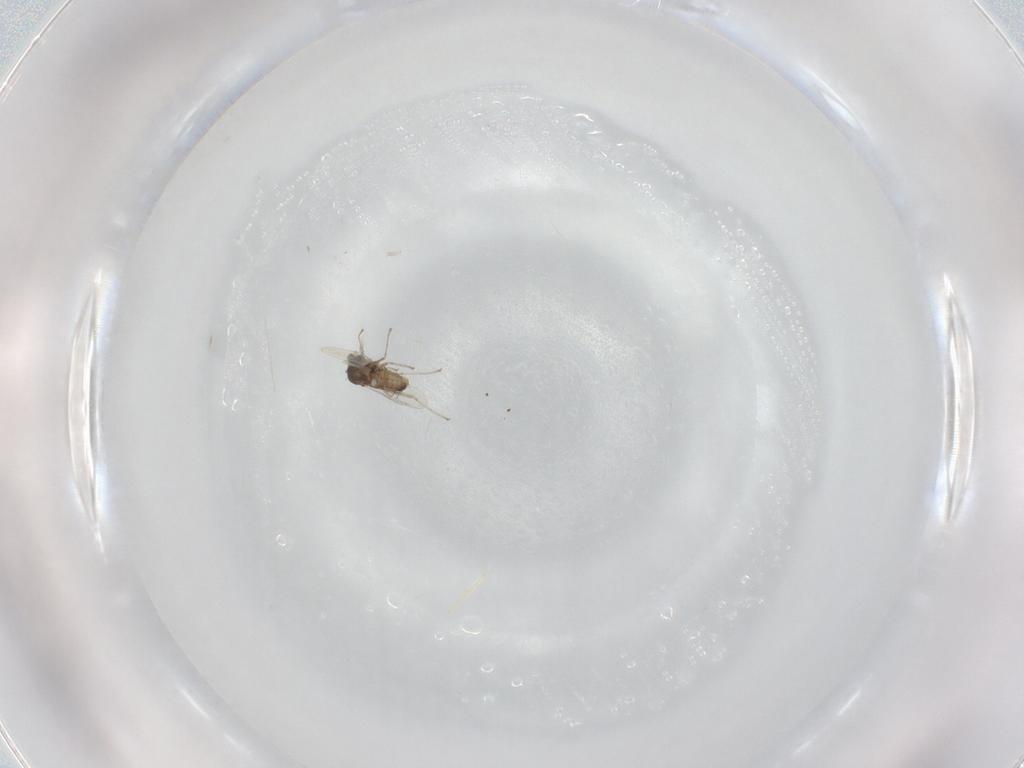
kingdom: Animalia
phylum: Arthropoda
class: Insecta
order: Diptera
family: Cecidomyiidae
